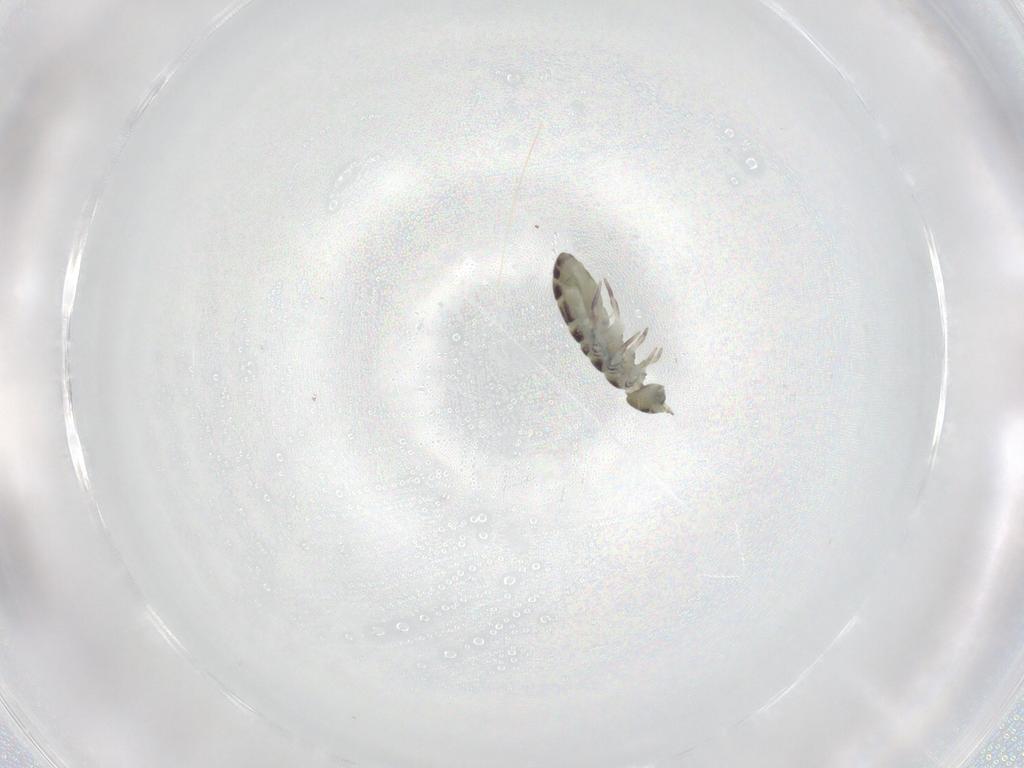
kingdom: Animalia
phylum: Arthropoda
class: Collembola
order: Entomobryomorpha
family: Isotomidae
